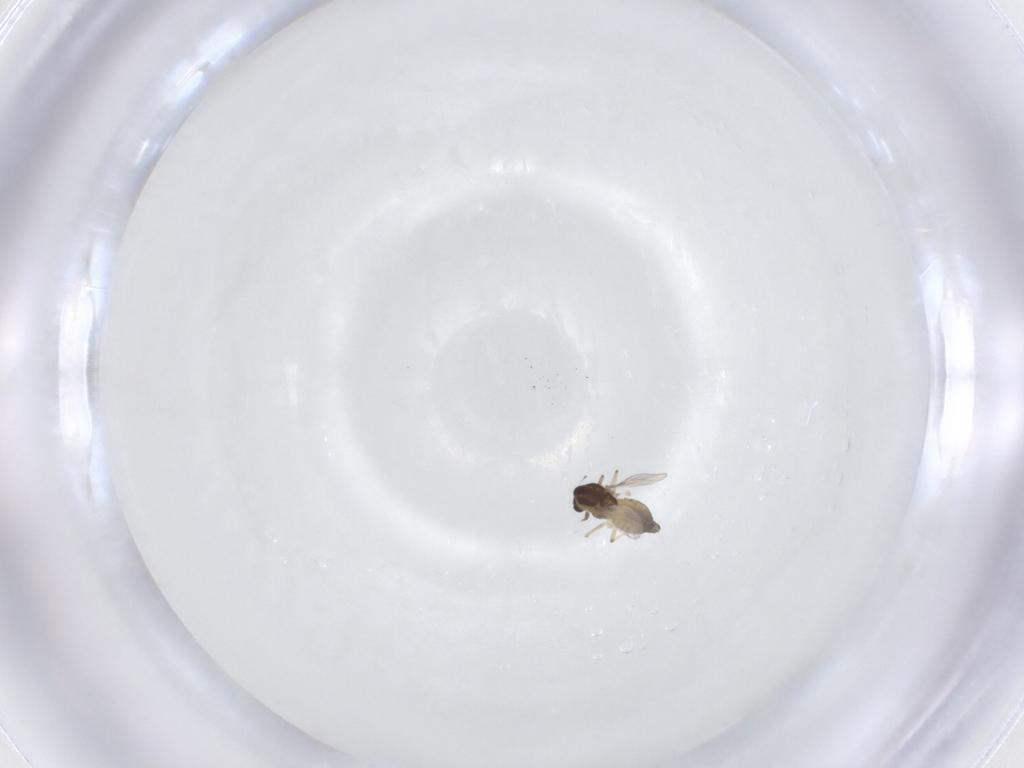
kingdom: Animalia
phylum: Arthropoda
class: Insecta
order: Diptera
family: Chironomidae
